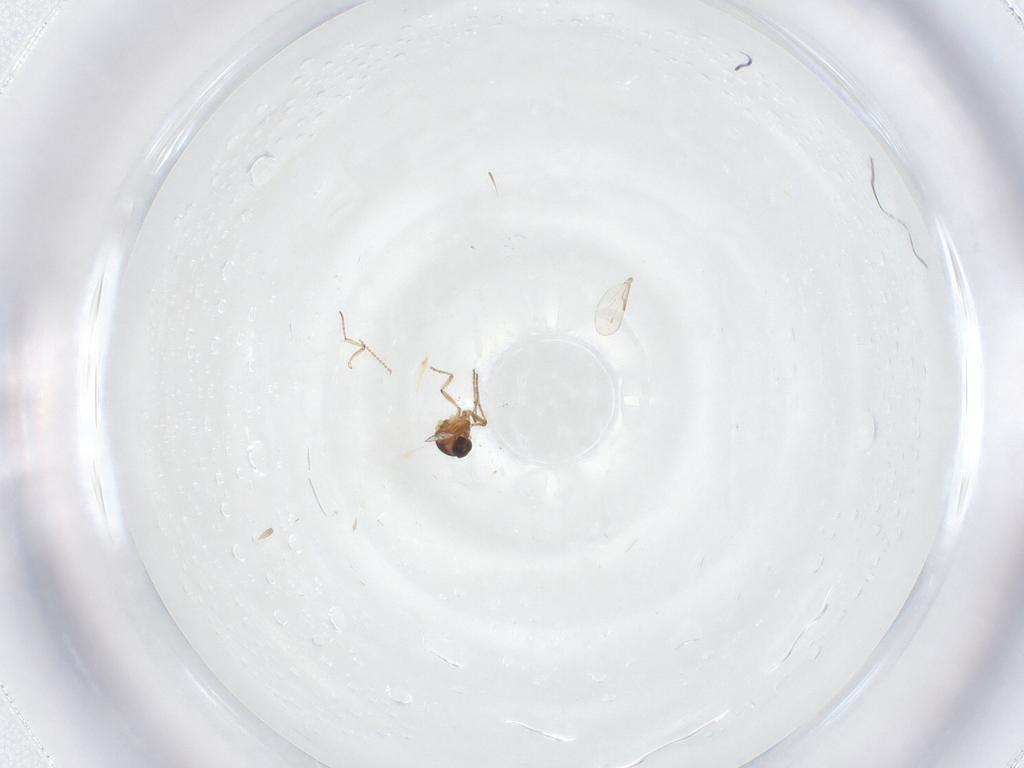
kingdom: Animalia
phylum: Arthropoda
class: Insecta
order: Diptera
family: Ceratopogonidae
